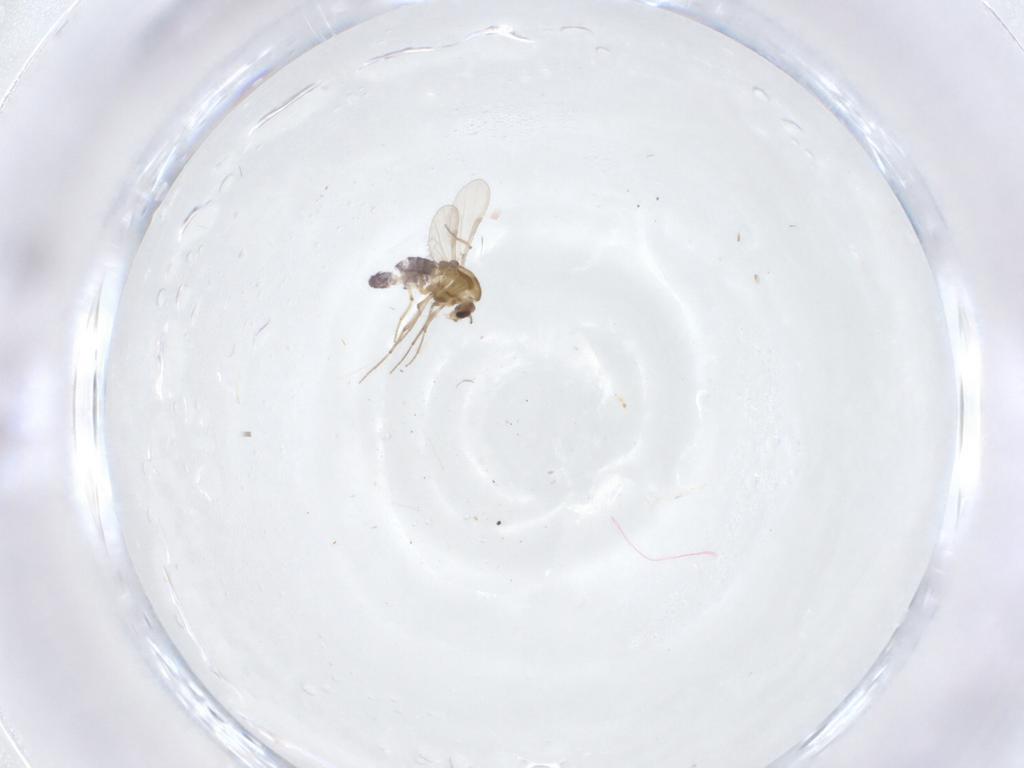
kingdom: Animalia
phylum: Arthropoda
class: Insecta
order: Diptera
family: Chironomidae
